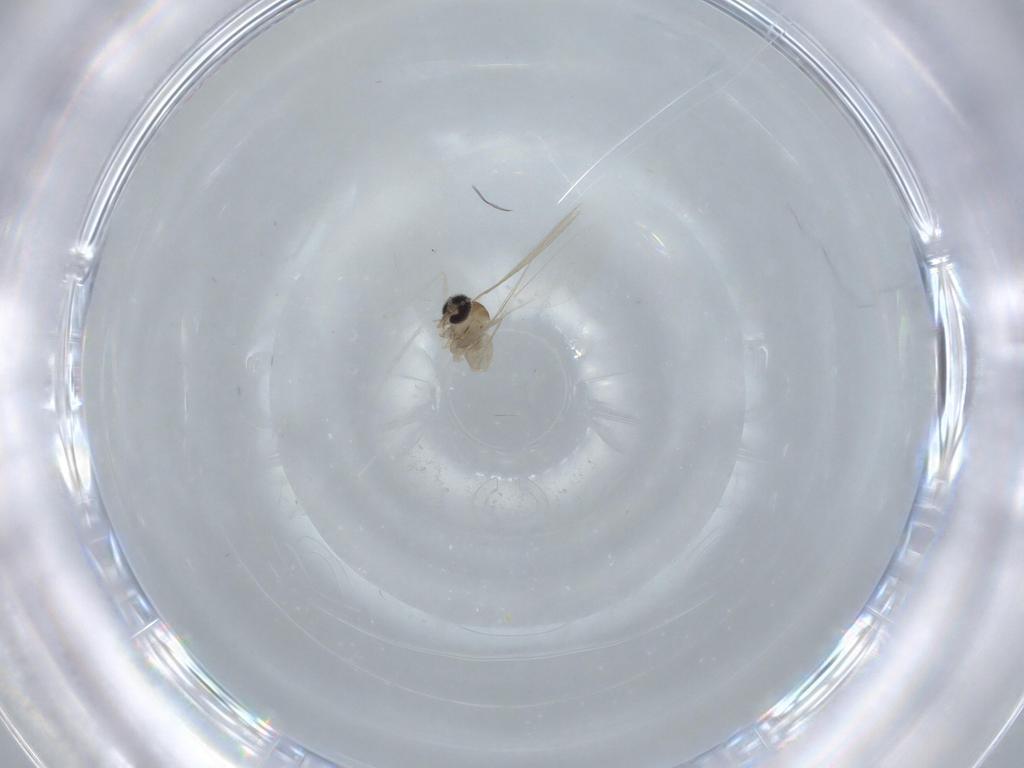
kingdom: Animalia
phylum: Arthropoda
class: Insecta
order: Diptera
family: Cecidomyiidae
